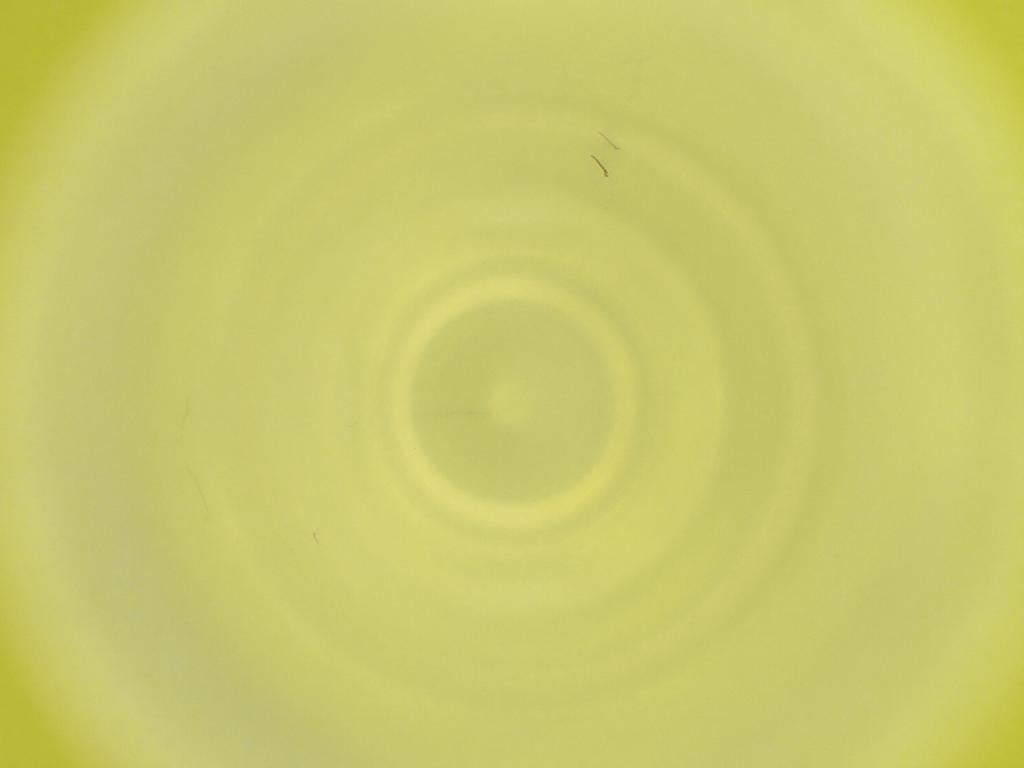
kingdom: Animalia
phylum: Arthropoda
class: Insecta
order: Diptera
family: Cecidomyiidae
